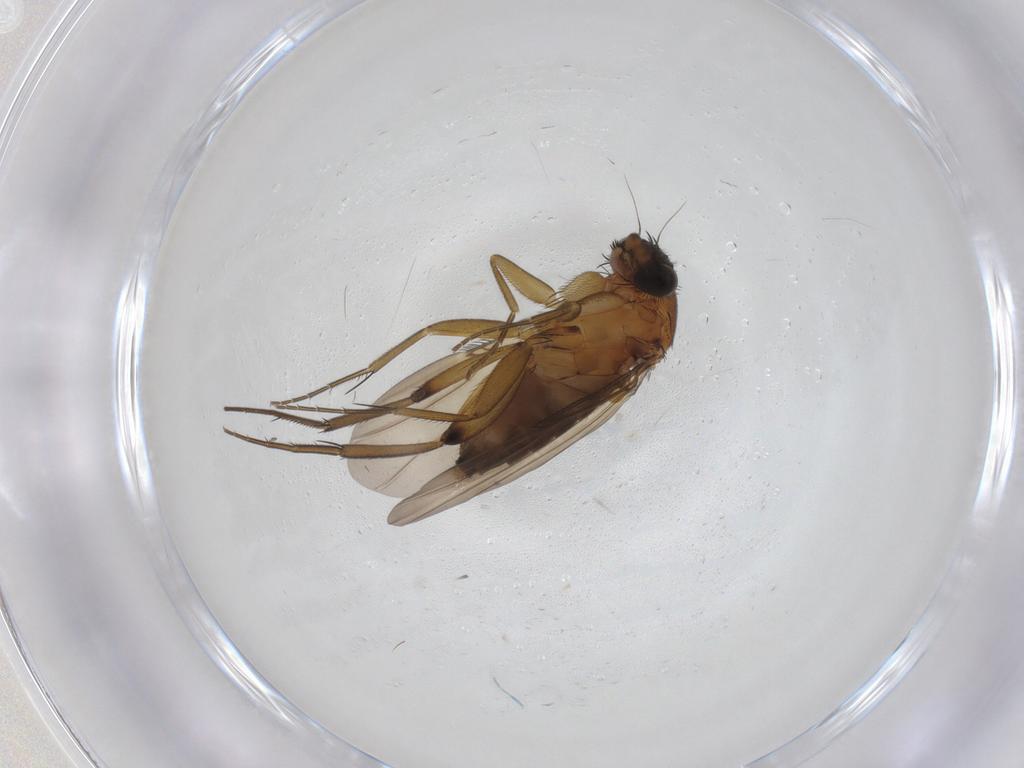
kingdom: Animalia
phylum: Arthropoda
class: Insecta
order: Diptera
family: Phoridae
